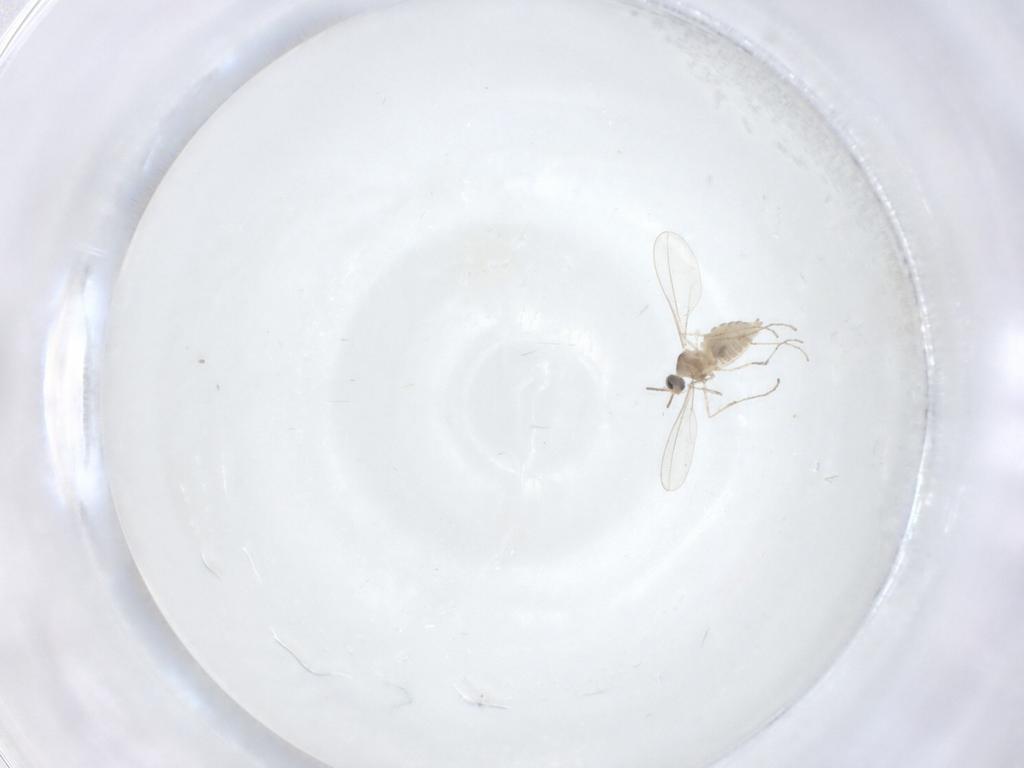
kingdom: Animalia
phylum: Arthropoda
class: Insecta
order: Diptera
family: Cecidomyiidae
